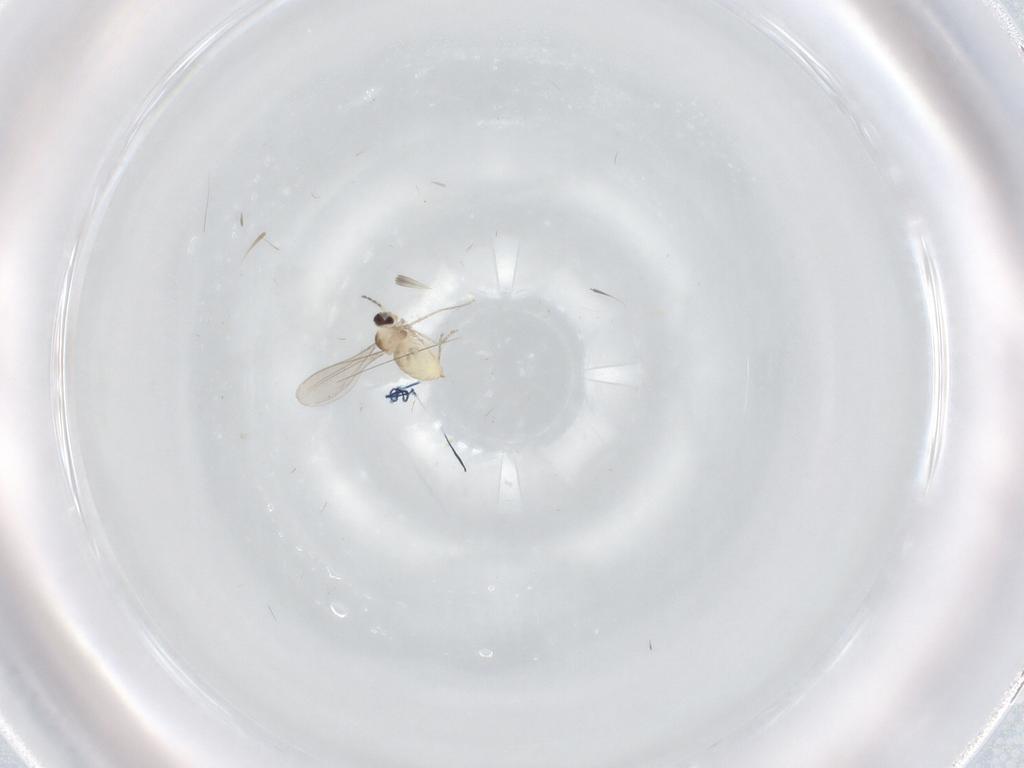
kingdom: Animalia
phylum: Arthropoda
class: Insecta
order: Diptera
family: Cecidomyiidae
